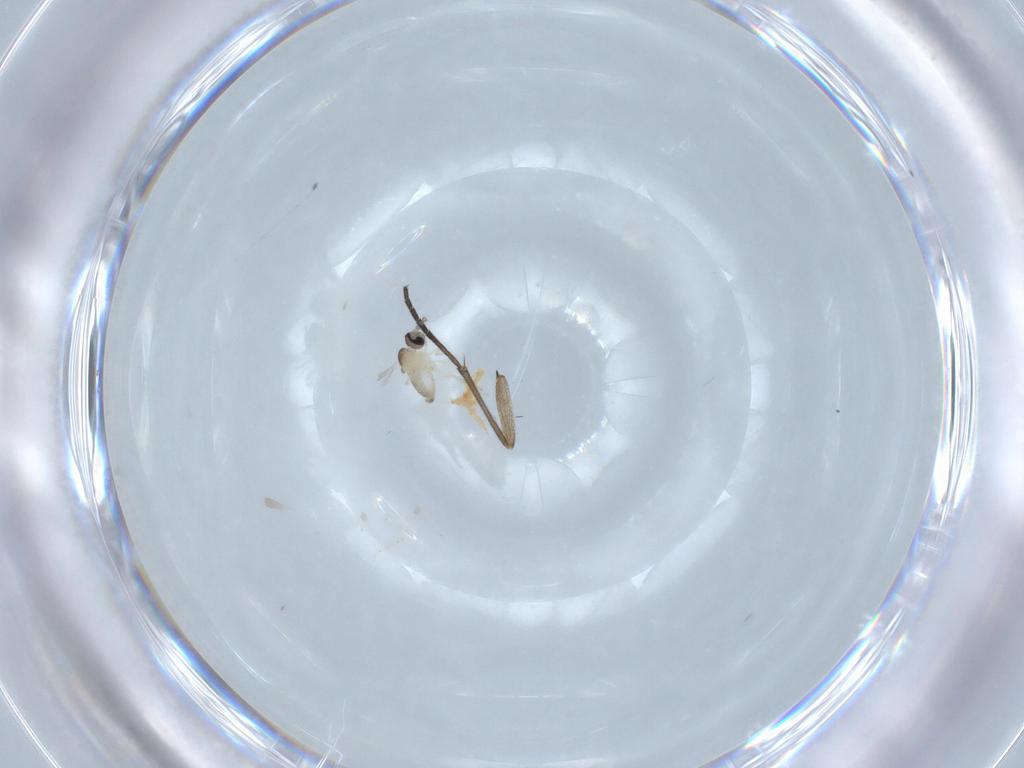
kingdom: Animalia
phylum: Arthropoda
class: Insecta
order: Diptera
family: Cecidomyiidae
